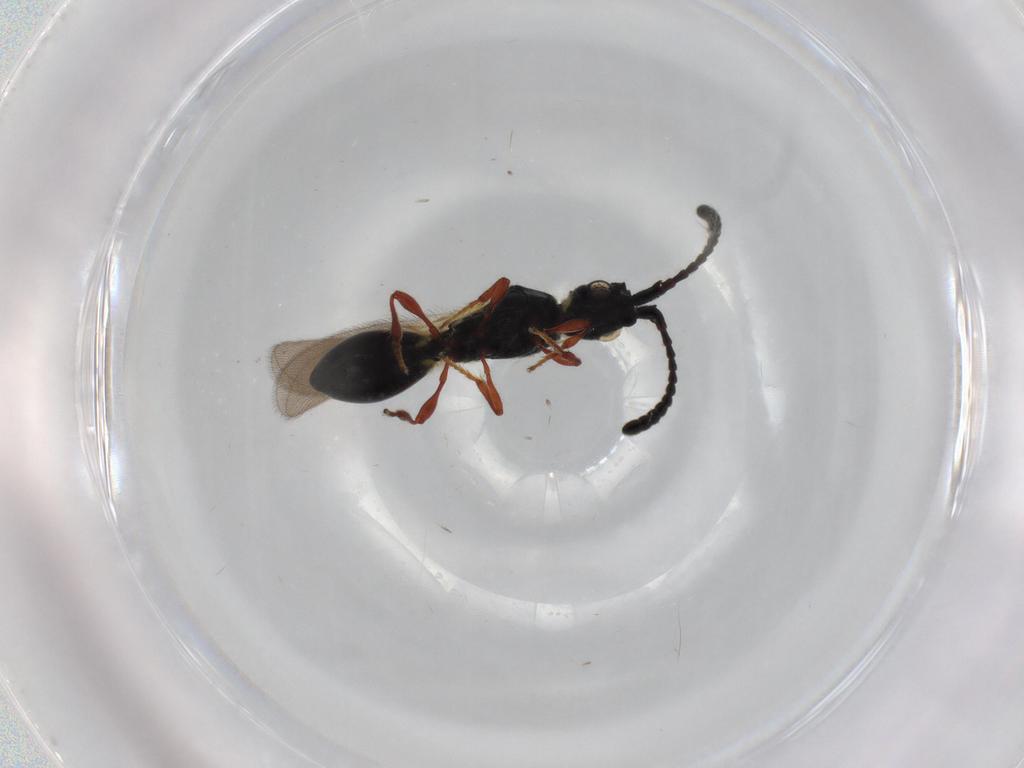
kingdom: Animalia
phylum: Arthropoda
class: Insecta
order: Hymenoptera
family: Diapriidae
